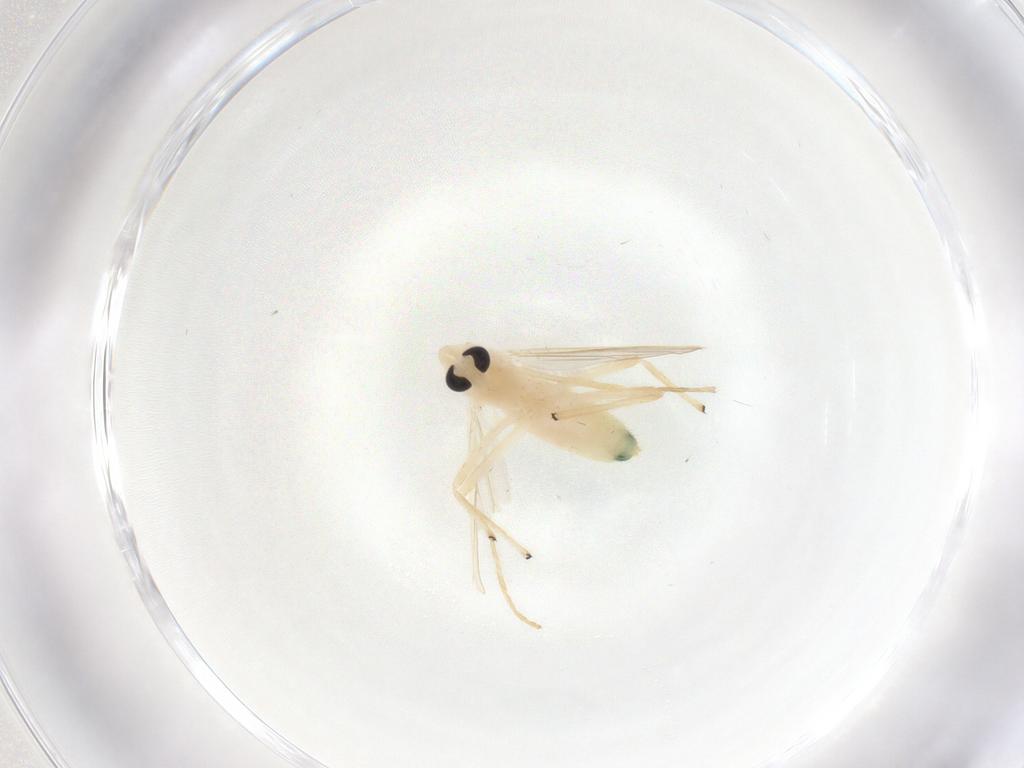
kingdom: Animalia
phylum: Arthropoda
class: Insecta
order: Diptera
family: Chironomidae
